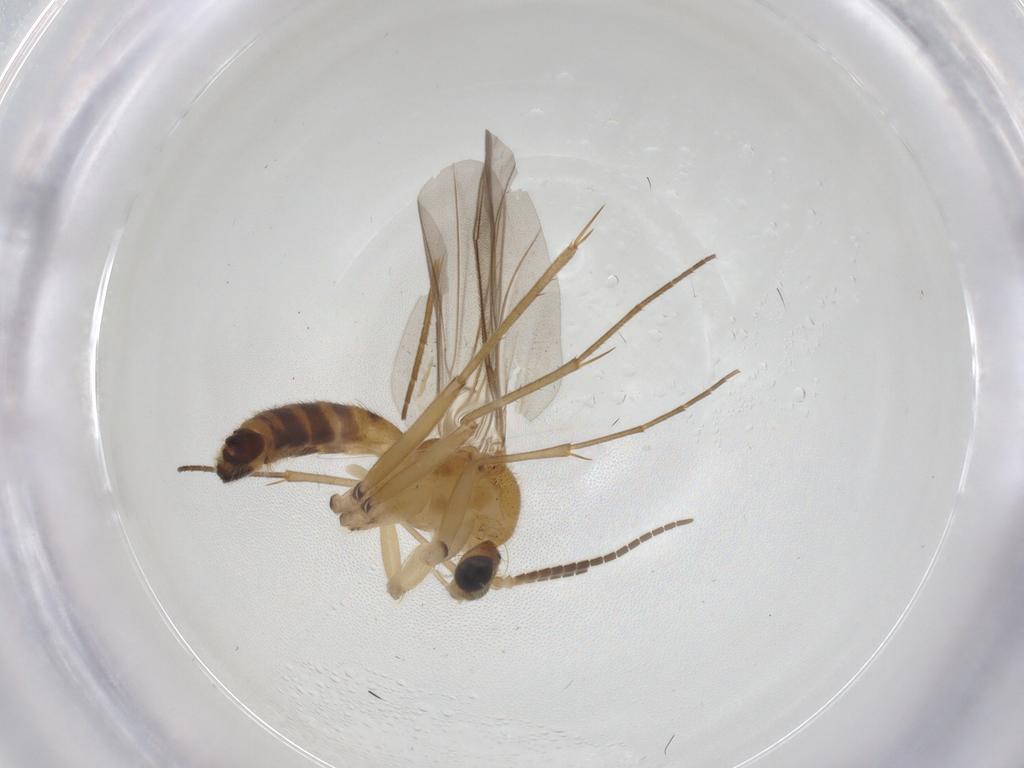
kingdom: Animalia
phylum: Arthropoda
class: Insecta
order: Diptera
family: Mycetophilidae
